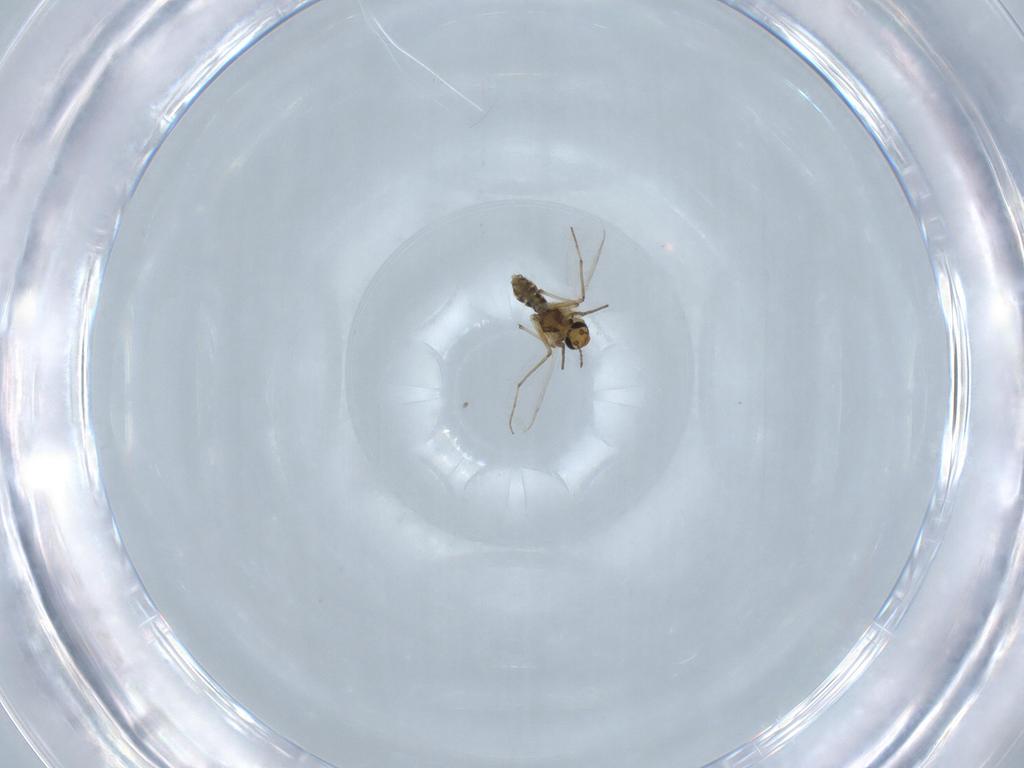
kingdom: Animalia
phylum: Arthropoda
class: Insecta
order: Diptera
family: Chironomidae
